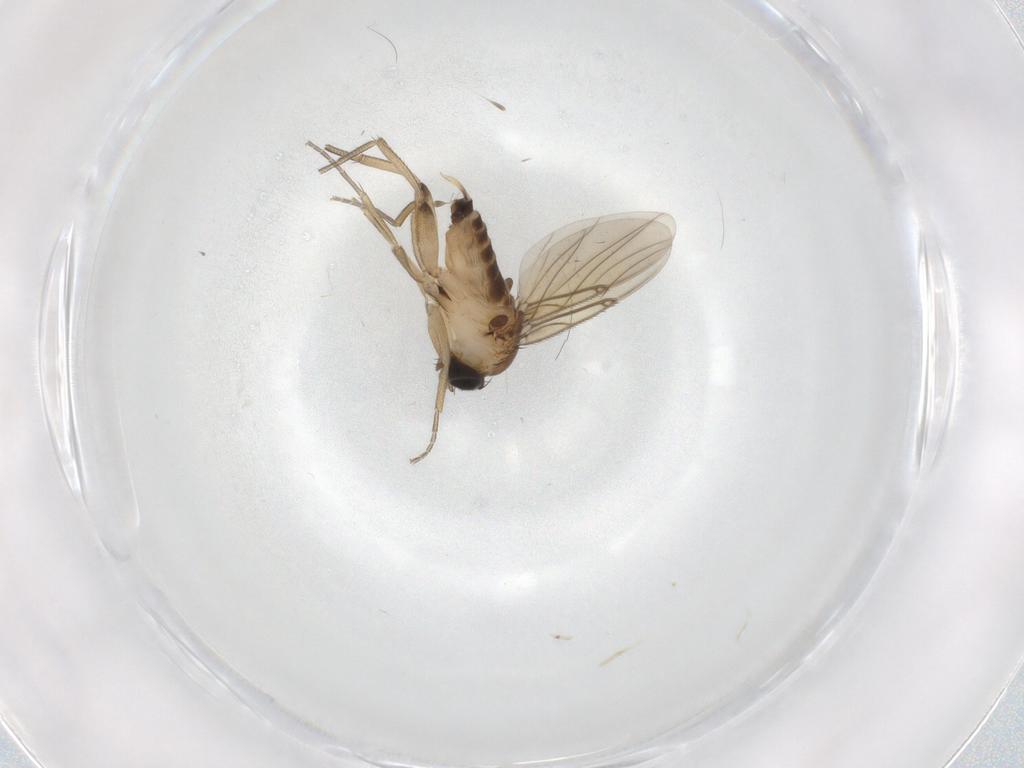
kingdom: Animalia
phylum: Arthropoda
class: Insecta
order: Diptera
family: Phoridae
